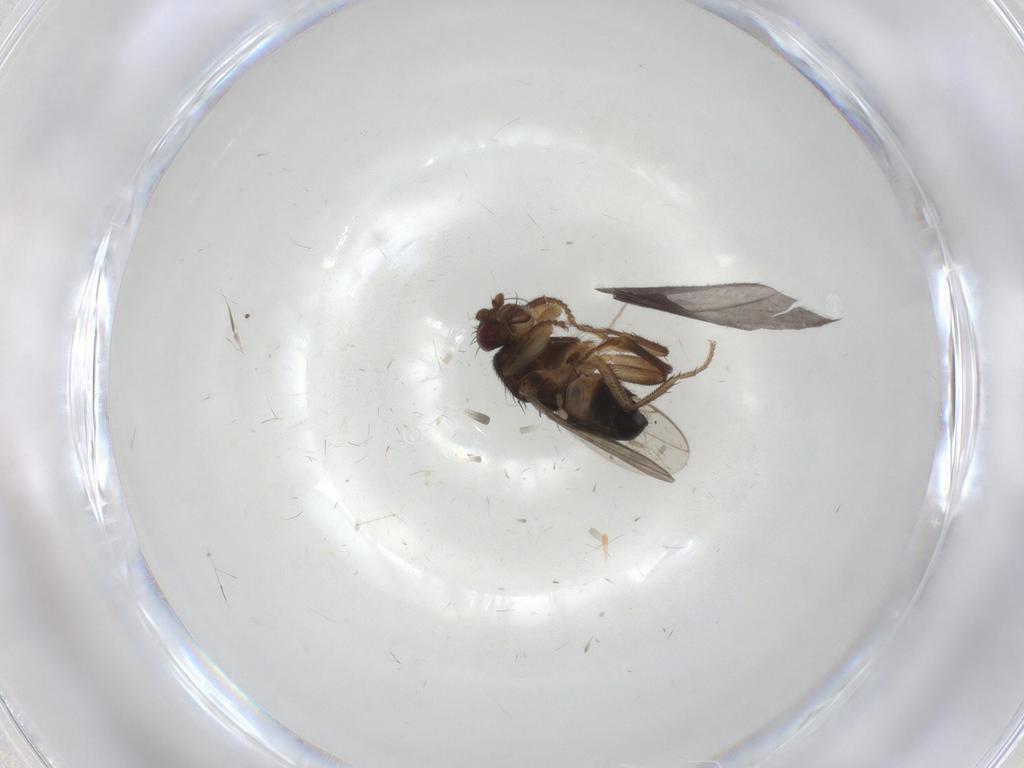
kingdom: Animalia
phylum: Arthropoda
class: Insecta
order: Diptera
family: Sphaeroceridae
